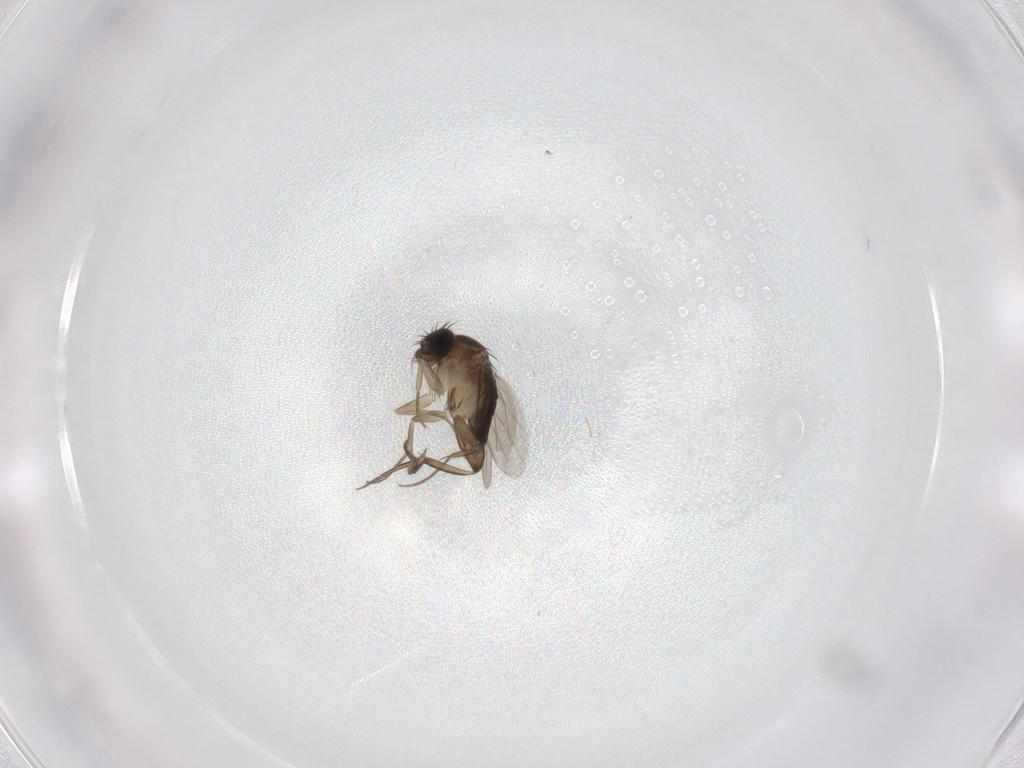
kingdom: Animalia
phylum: Arthropoda
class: Insecta
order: Diptera
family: Phoridae
